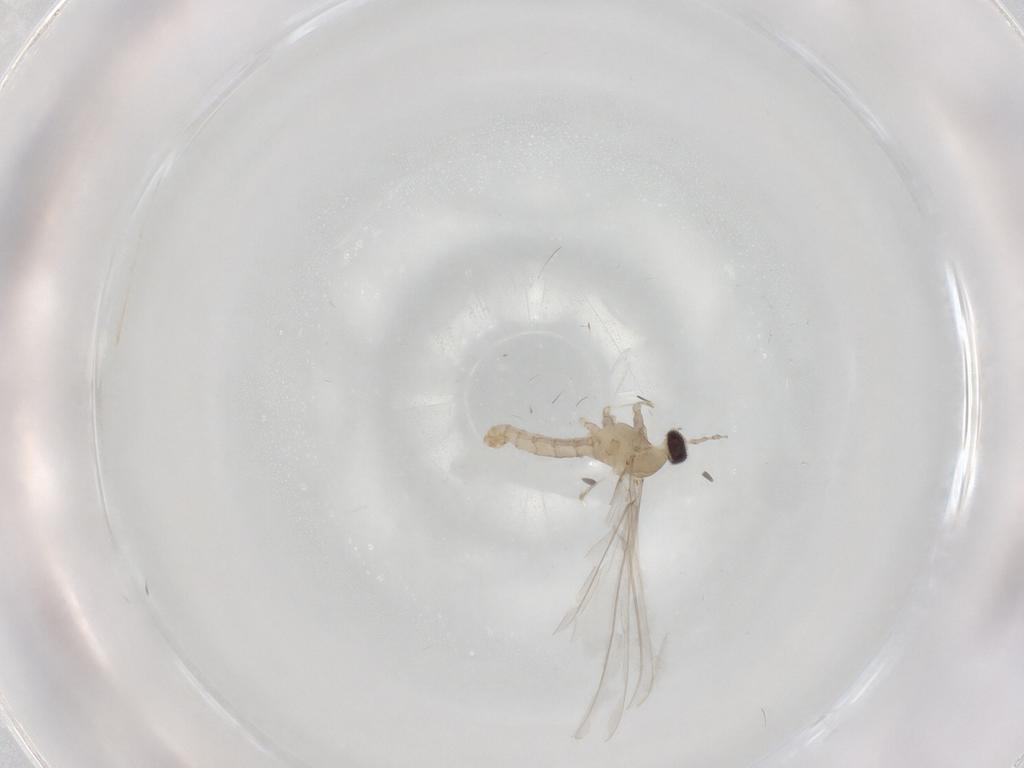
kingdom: Animalia
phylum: Arthropoda
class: Insecta
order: Diptera
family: Cecidomyiidae
